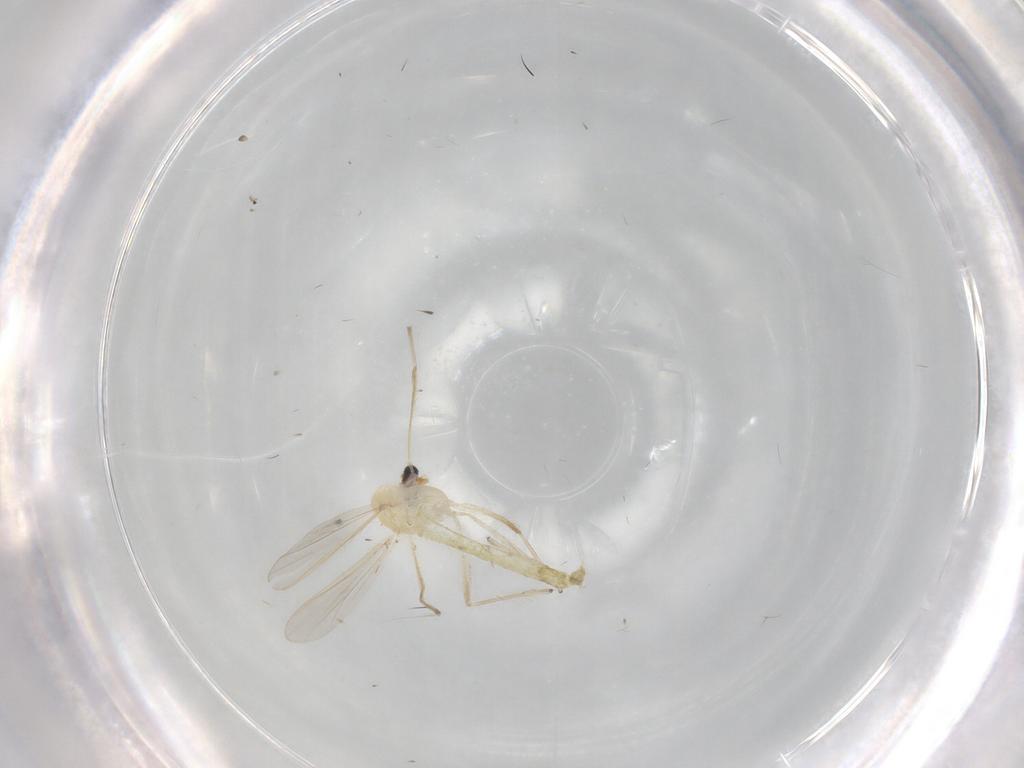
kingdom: Animalia
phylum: Arthropoda
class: Insecta
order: Diptera
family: Chironomidae
